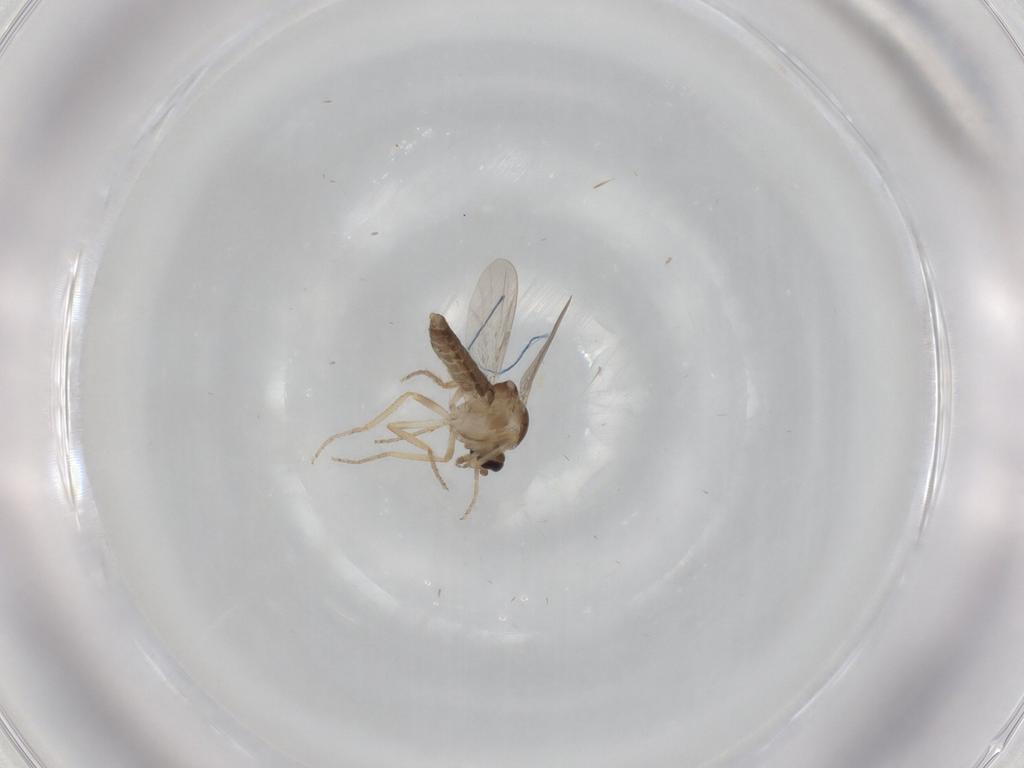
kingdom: Animalia
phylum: Arthropoda
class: Insecta
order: Diptera
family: Ceratopogonidae
